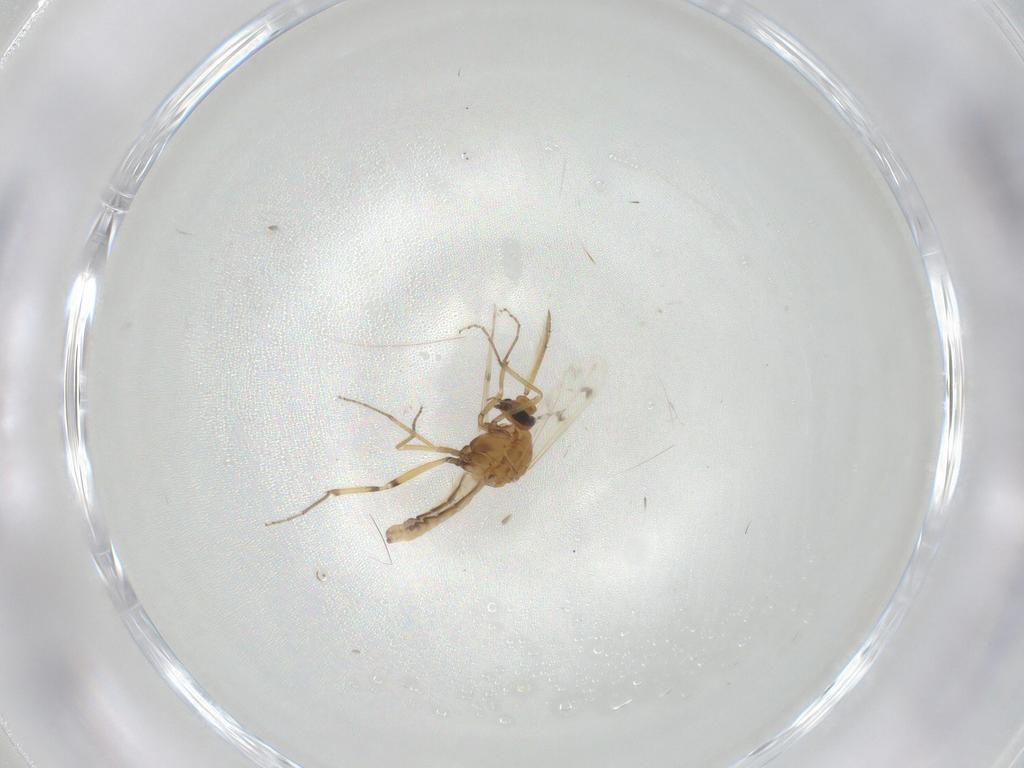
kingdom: Animalia
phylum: Arthropoda
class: Insecta
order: Diptera
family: Ceratopogonidae
